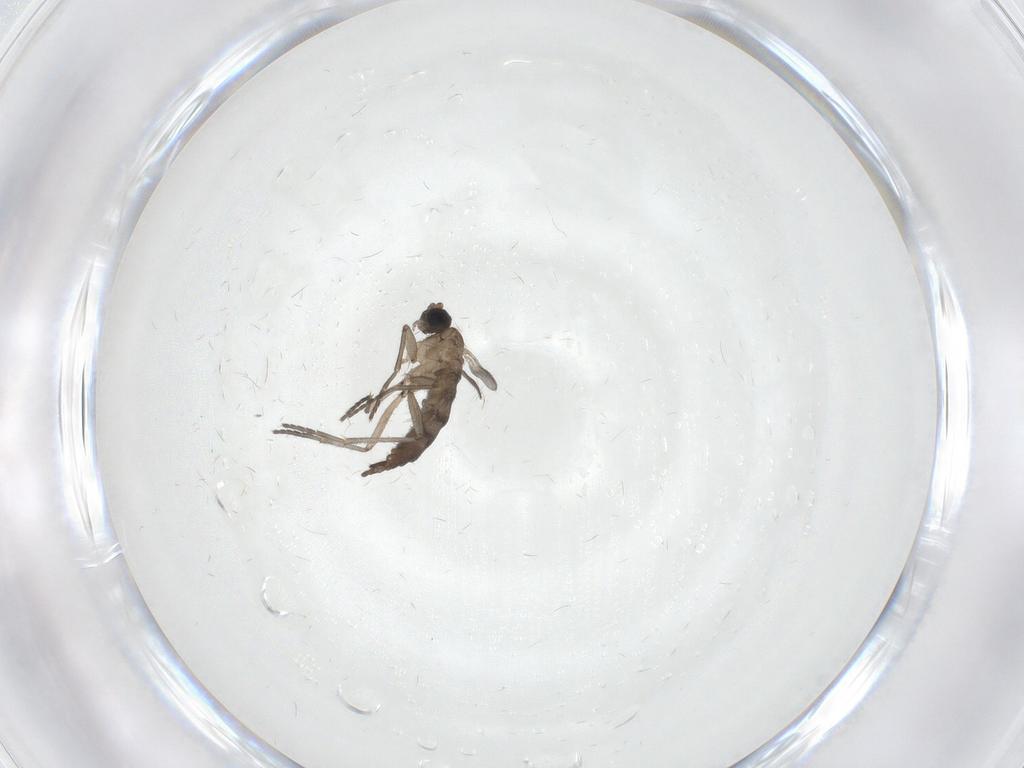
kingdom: Animalia
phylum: Arthropoda
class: Insecta
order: Diptera
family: Sciaridae
